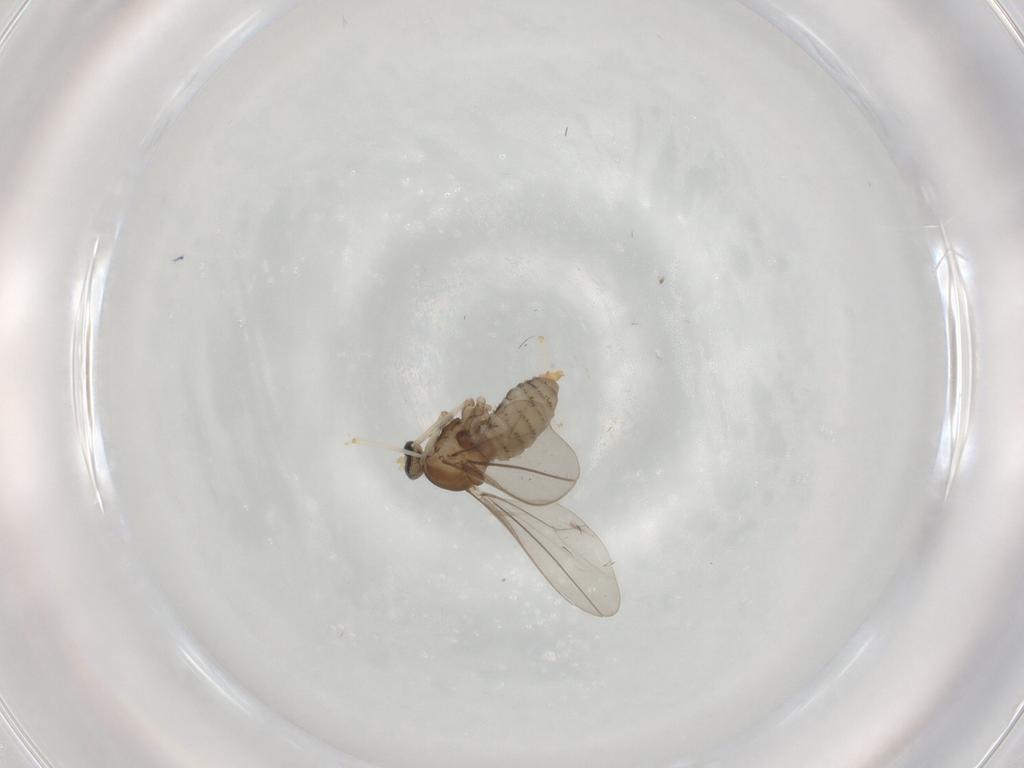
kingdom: Animalia
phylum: Arthropoda
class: Insecta
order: Diptera
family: Cecidomyiidae
